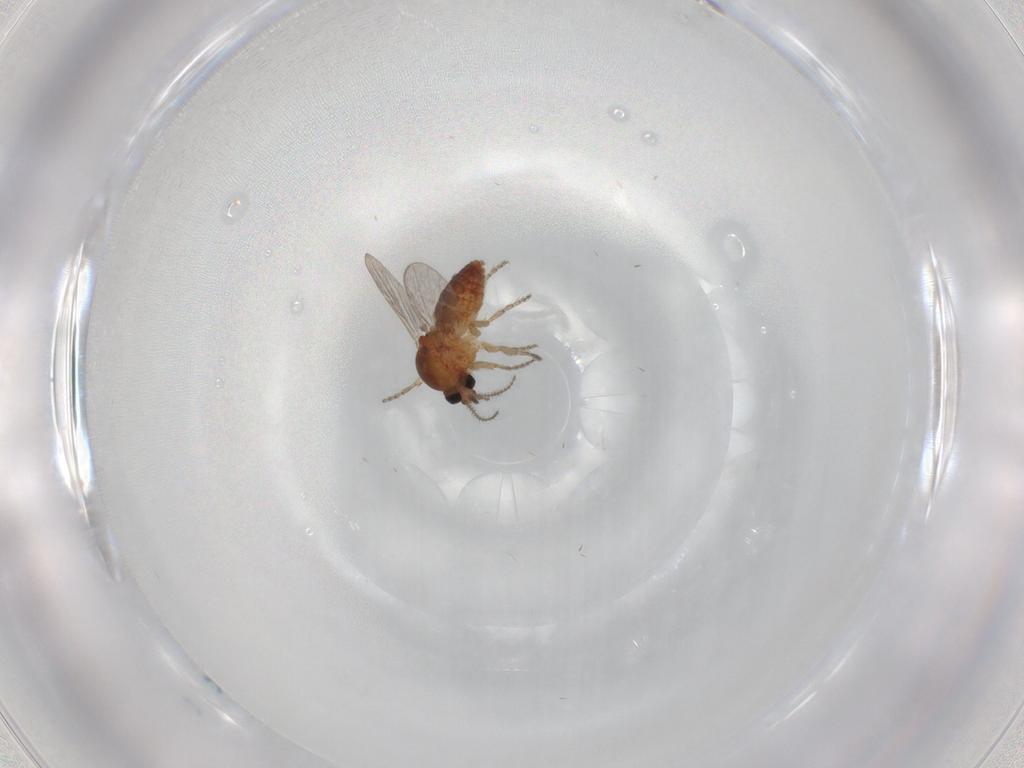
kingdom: Animalia
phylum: Arthropoda
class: Insecta
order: Diptera
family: Ceratopogonidae
